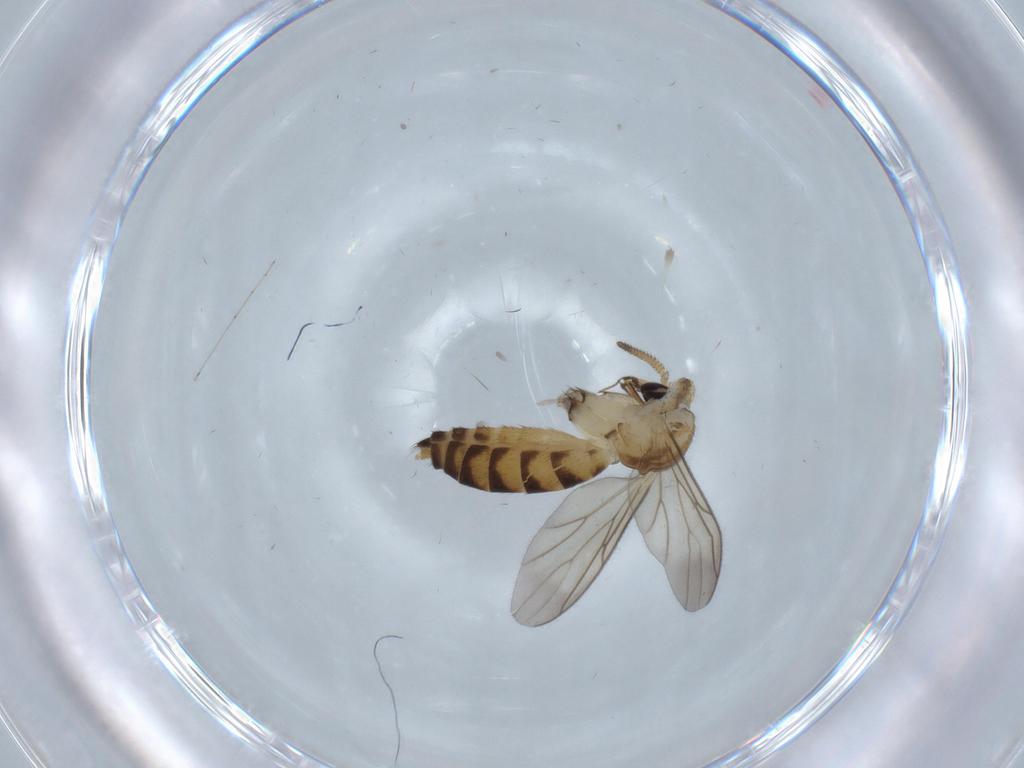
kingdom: Animalia
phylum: Arthropoda
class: Insecta
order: Diptera
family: Mycetophilidae
